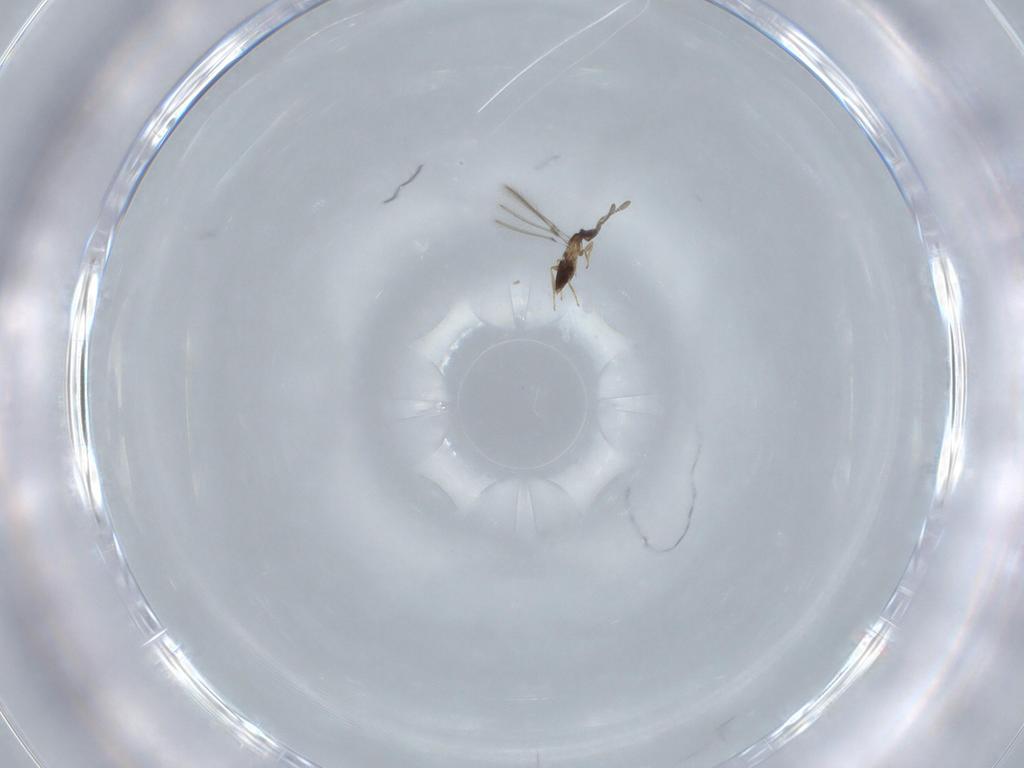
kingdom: Animalia
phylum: Arthropoda
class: Insecta
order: Hymenoptera
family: Mymaridae
